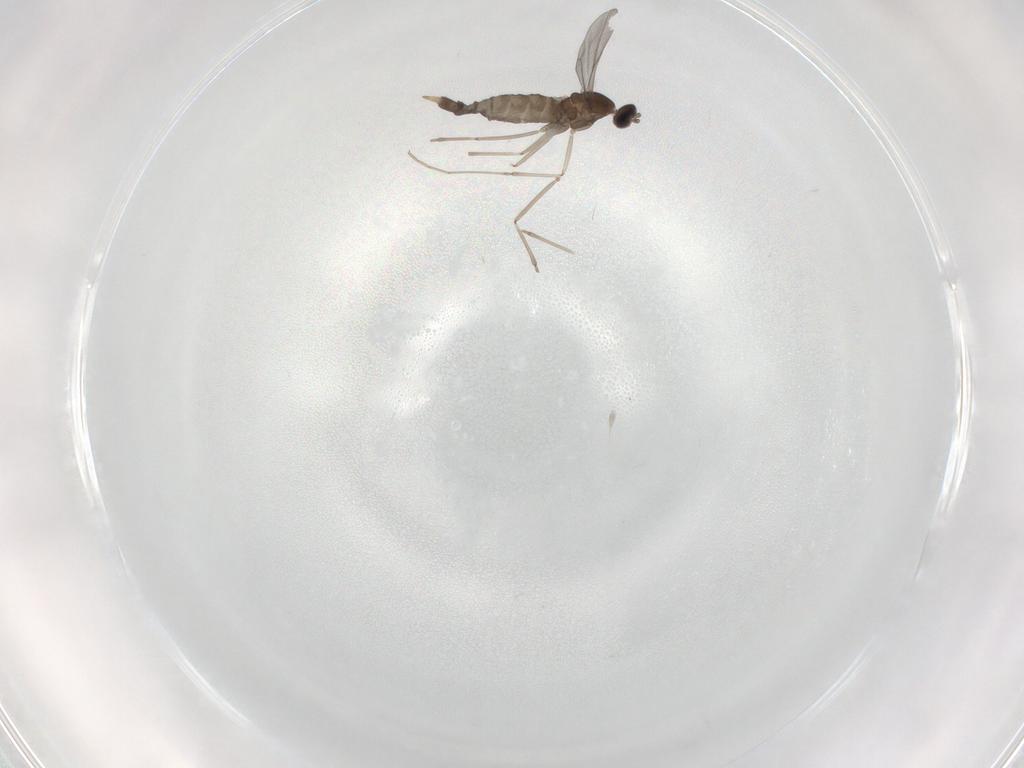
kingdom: Animalia
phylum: Arthropoda
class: Insecta
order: Diptera
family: Cecidomyiidae
